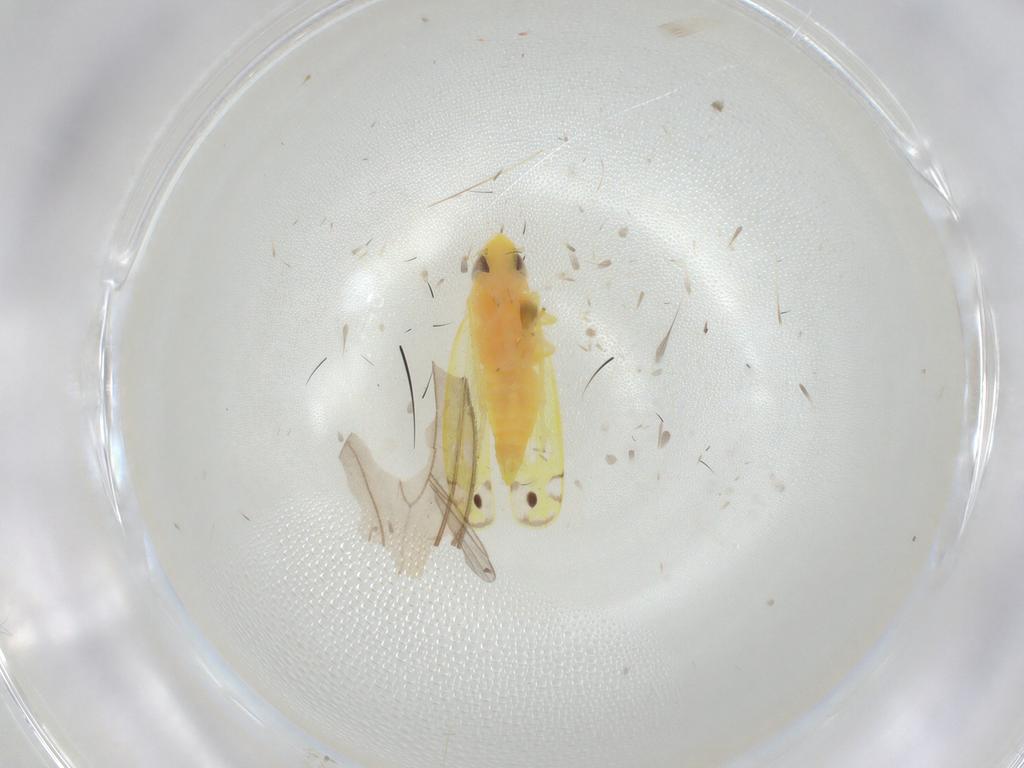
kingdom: Animalia
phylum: Arthropoda
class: Insecta
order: Hemiptera
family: Cicadellidae
